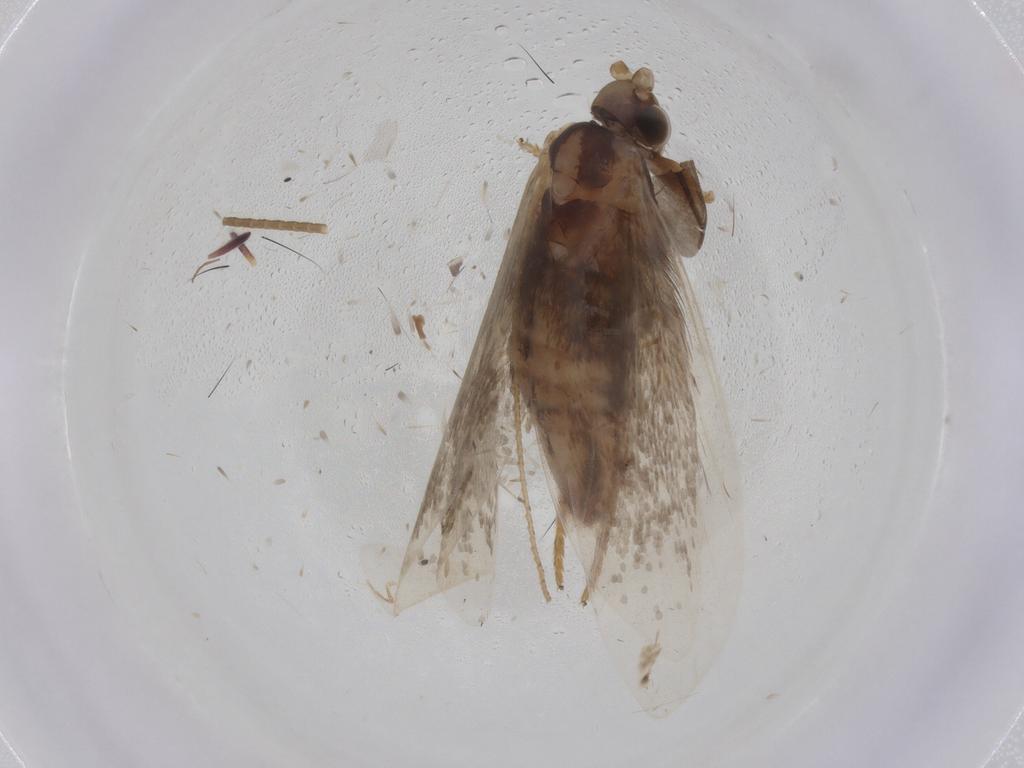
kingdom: Animalia
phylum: Arthropoda
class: Insecta
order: Lepidoptera
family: Adelidae
